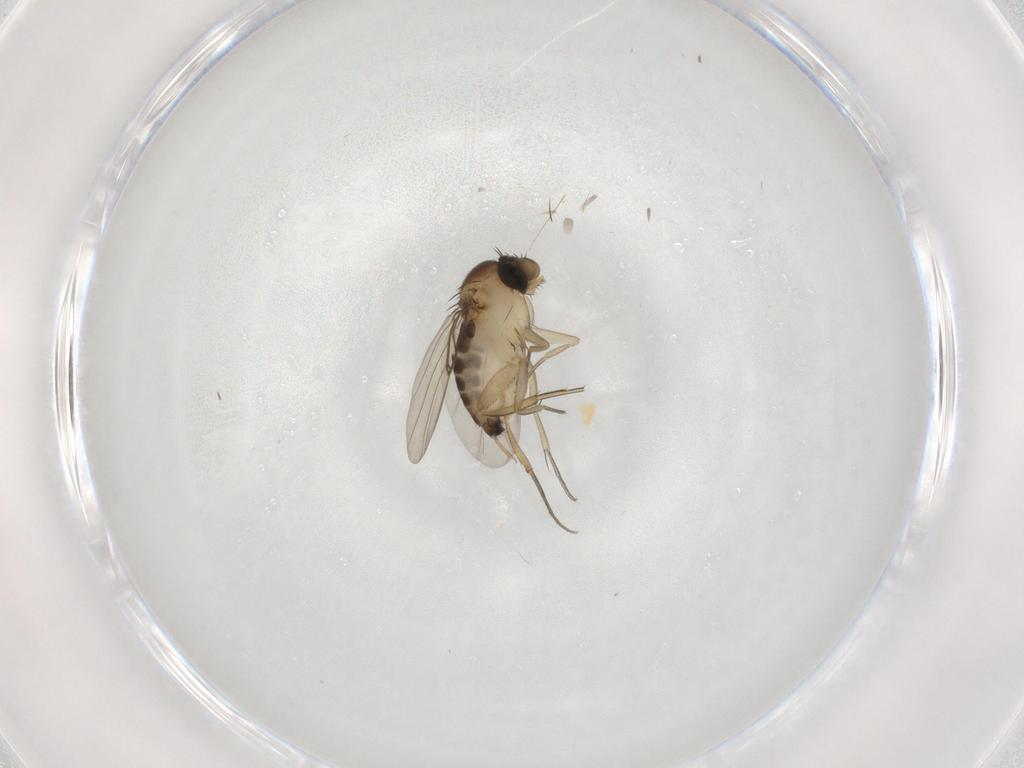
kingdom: Animalia
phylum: Arthropoda
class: Insecta
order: Diptera
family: Phoridae
